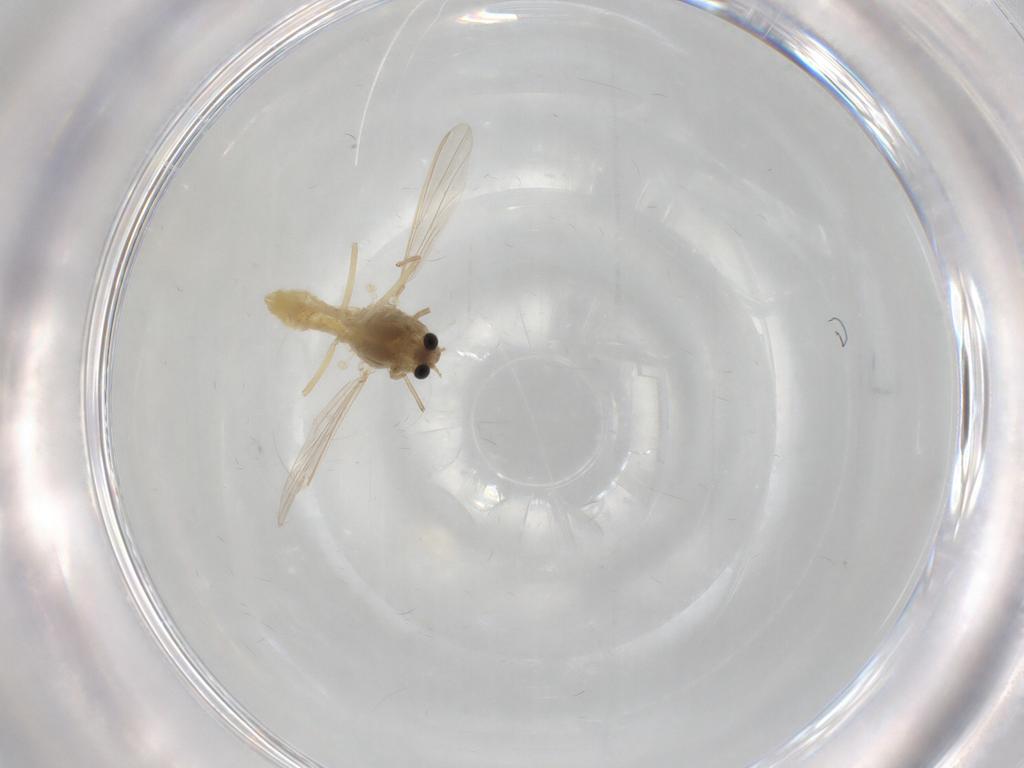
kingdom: Animalia
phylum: Arthropoda
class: Insecta
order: Diptera
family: Chironomidae
